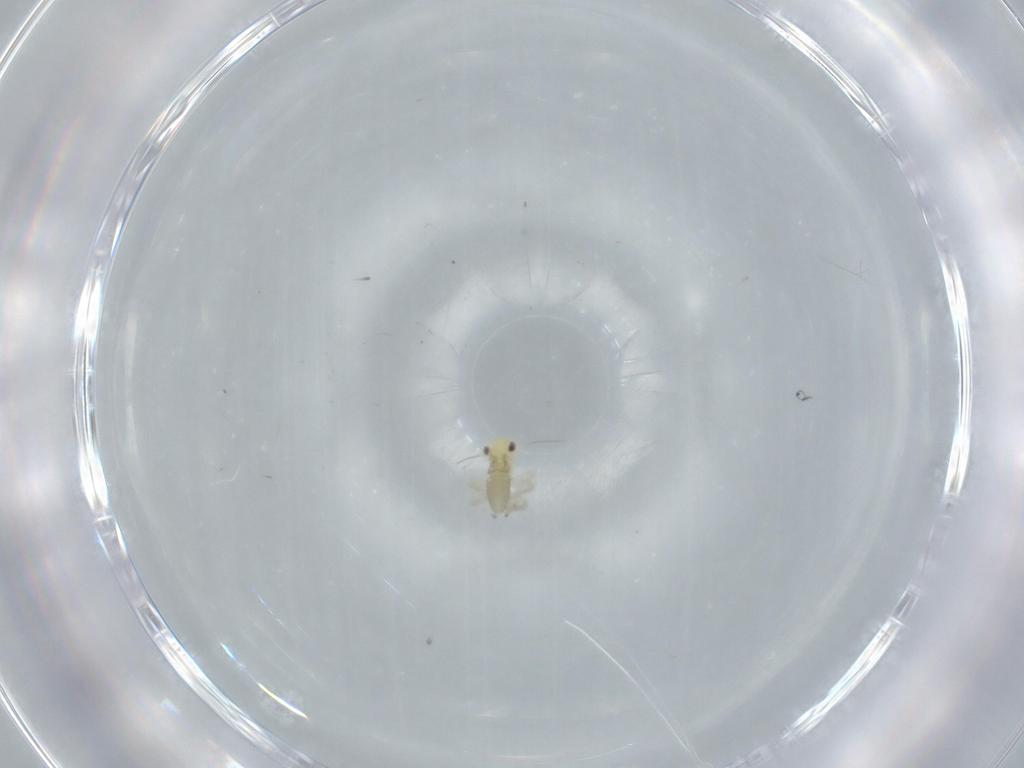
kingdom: Animalia
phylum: Arthropoda
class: Insecta
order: Hemiptera
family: Cicadellidae
